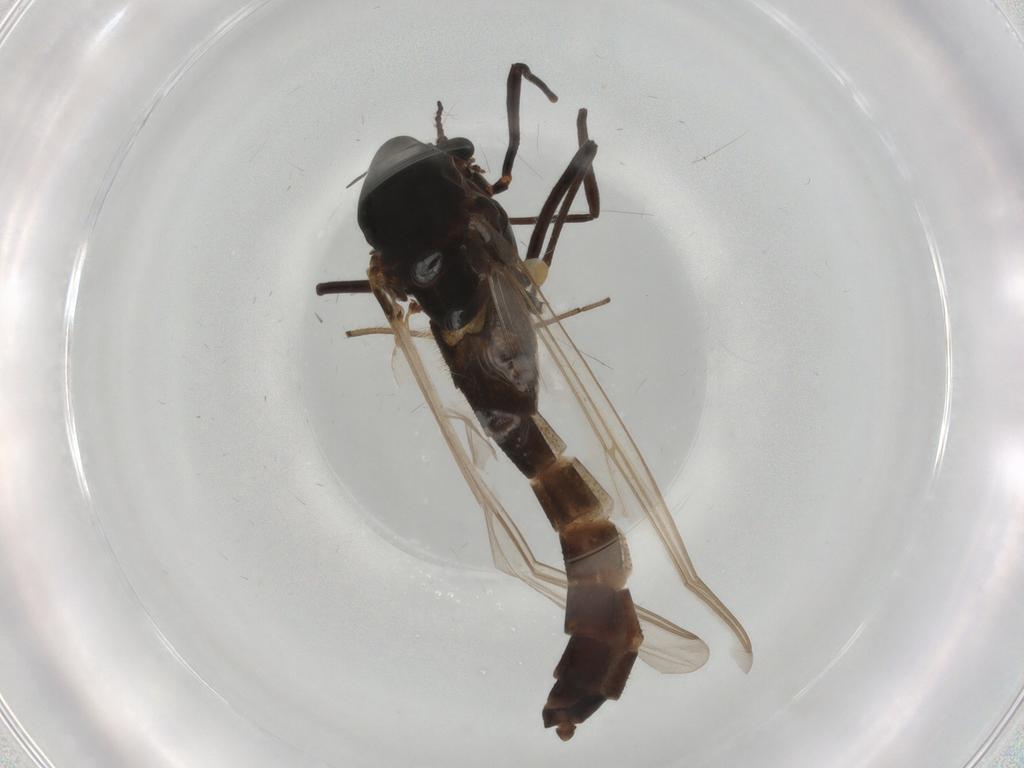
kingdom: Animalia
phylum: Arthropoda
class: Insecta
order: Diptera
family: Chironomidae
